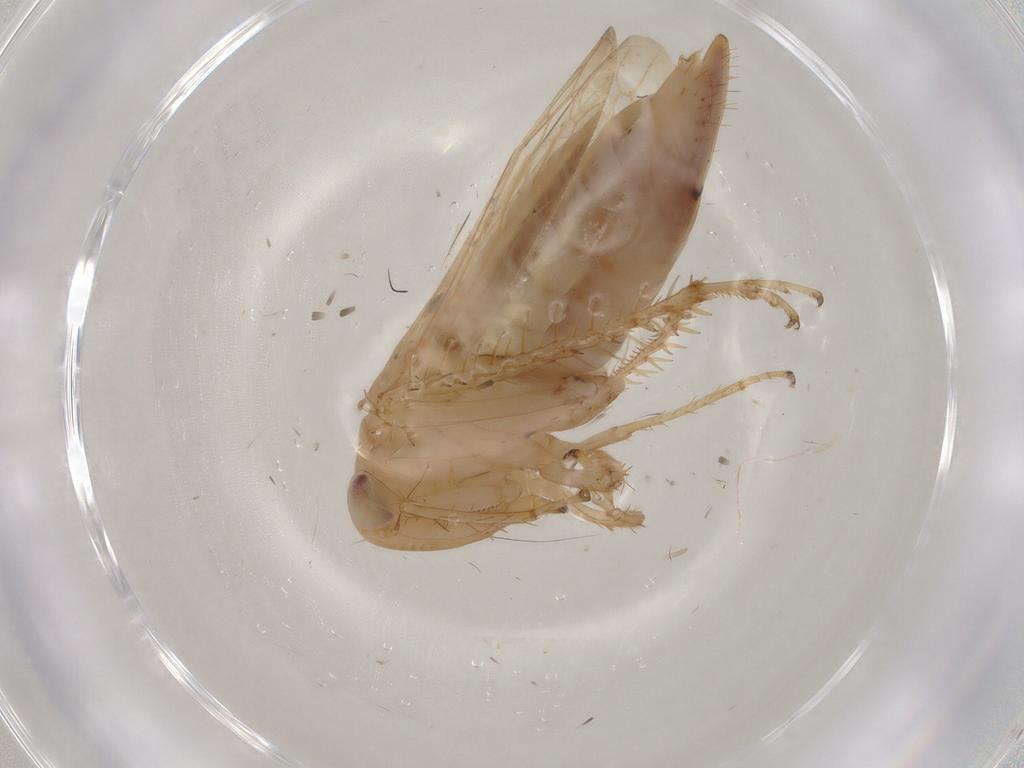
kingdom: Animalia
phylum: Arthropoda
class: Insecta
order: Hemiptera
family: Cicadellidae
